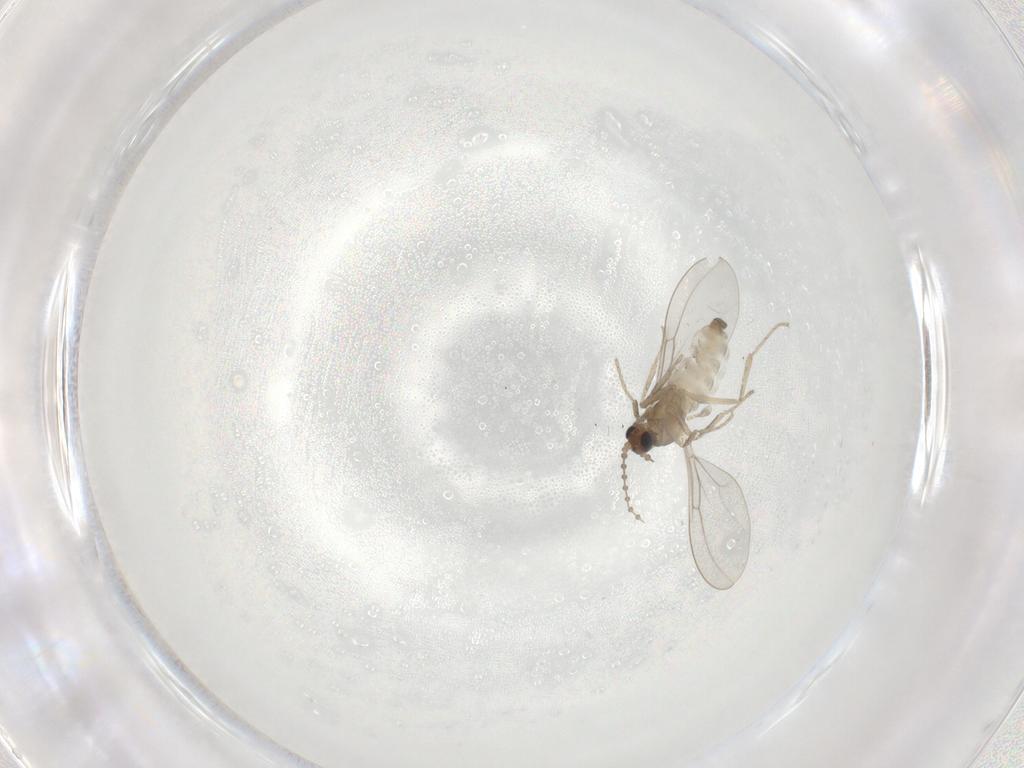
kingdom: Animalia
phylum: Arthropoda
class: Insecta
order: Diptera
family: Cecidomyiidae
